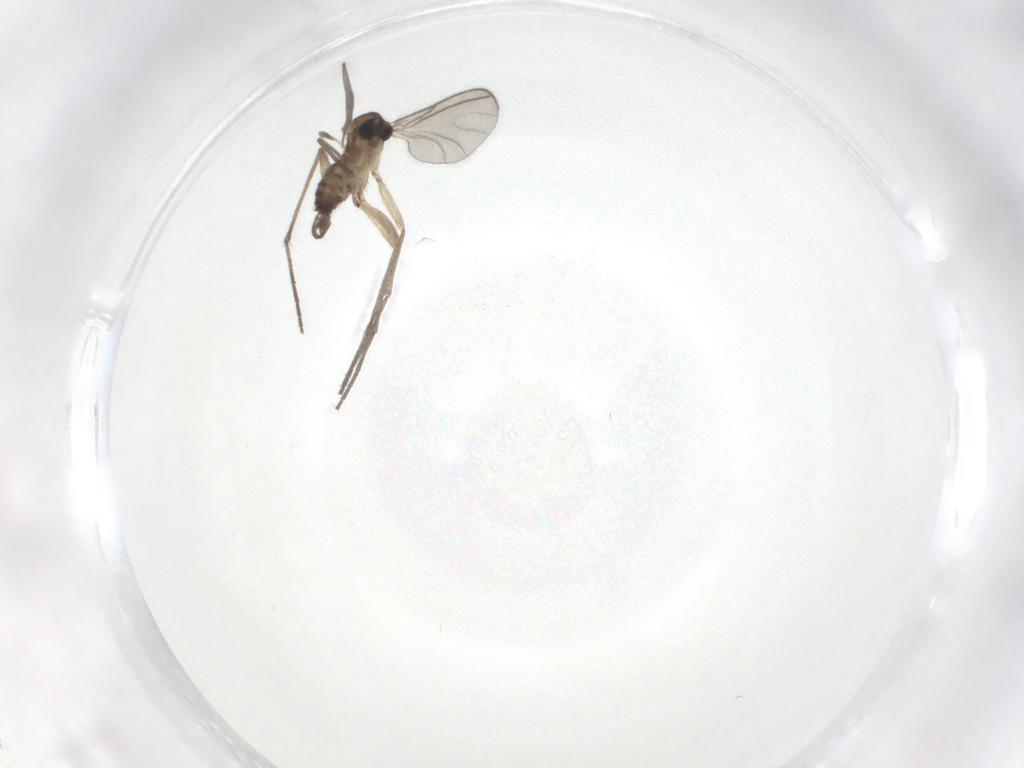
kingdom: Animalia
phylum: Arthropoda
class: Insecta
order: Diptera
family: Sciaridae
